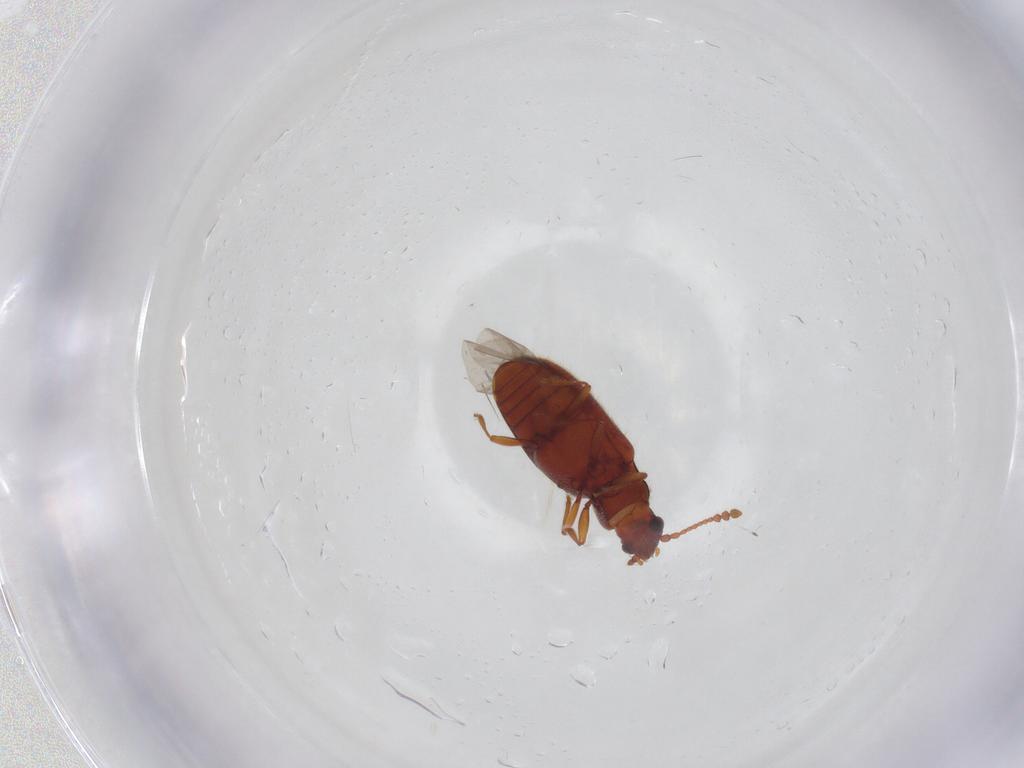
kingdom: Animalia
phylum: Arthropoda
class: Insecta
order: Coleoptera
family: Cryptophagidae
